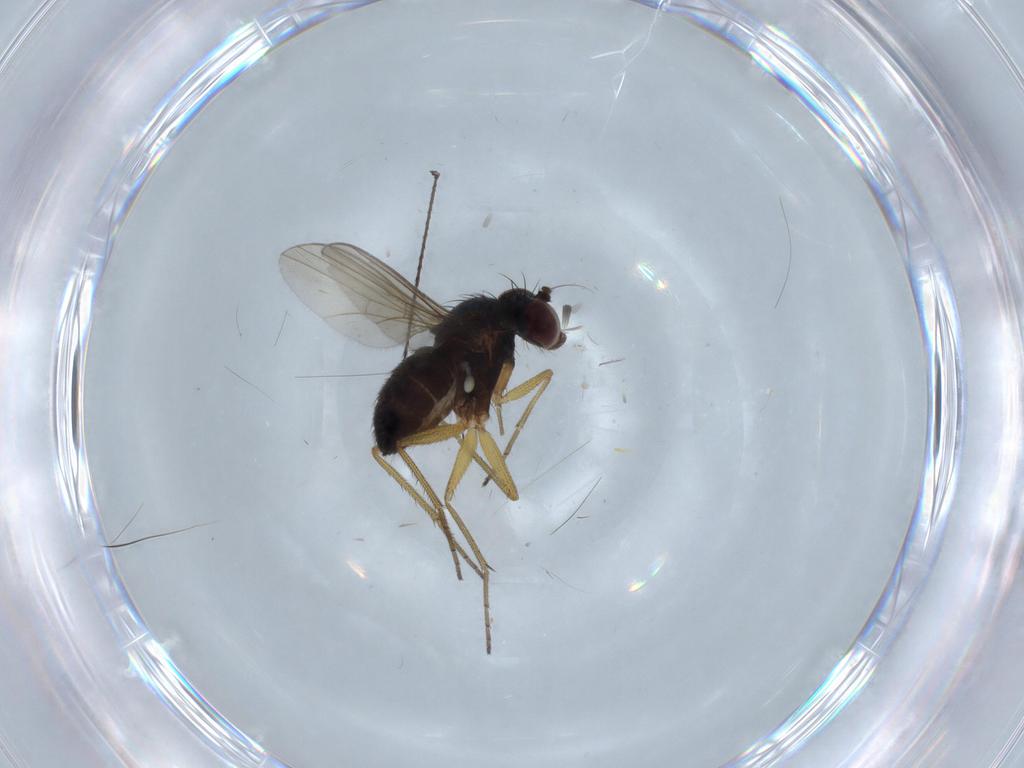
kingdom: Animalia
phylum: Arthropoda
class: Insecta
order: Diptera
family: Dolichopodidae
